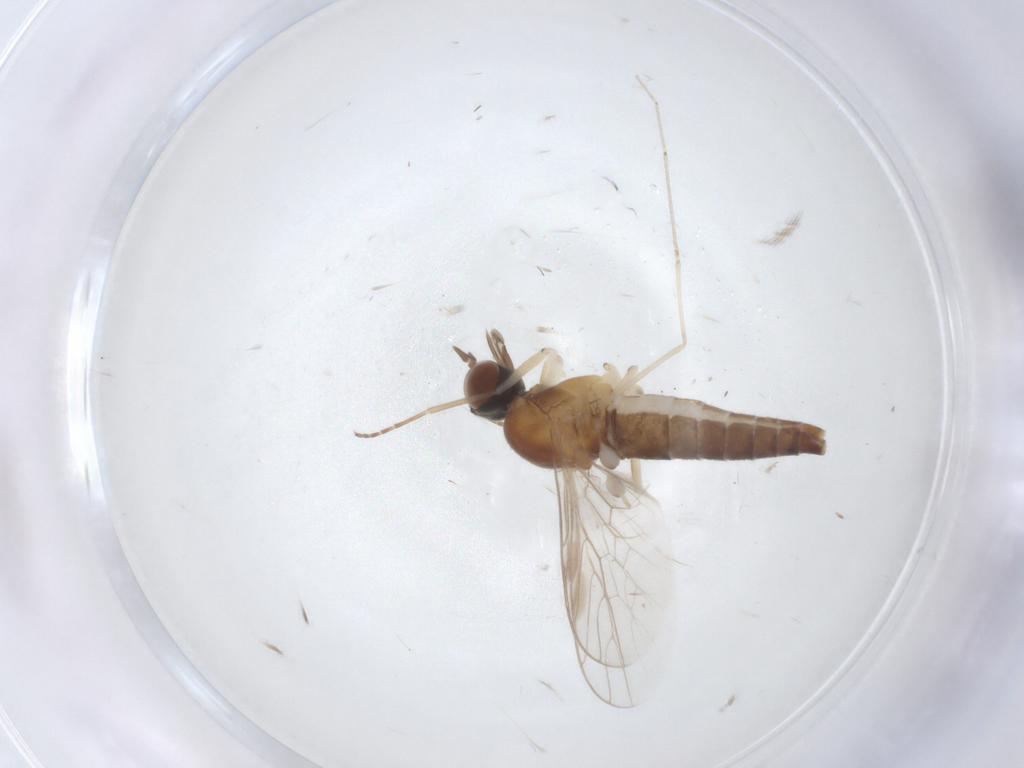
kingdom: Animalia
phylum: Arthropoda
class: Insecta
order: Diptera
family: Scenopinidae
